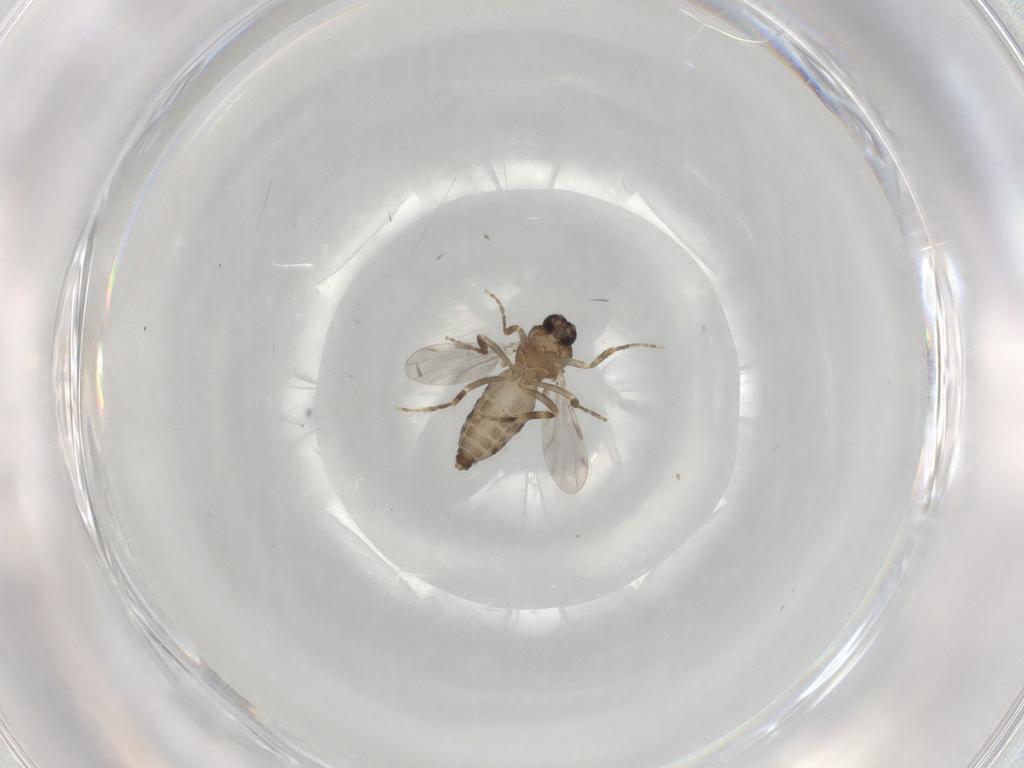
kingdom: Animalia
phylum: Arthropoda
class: Insecta
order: Diptera
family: Ceratopogonidae
